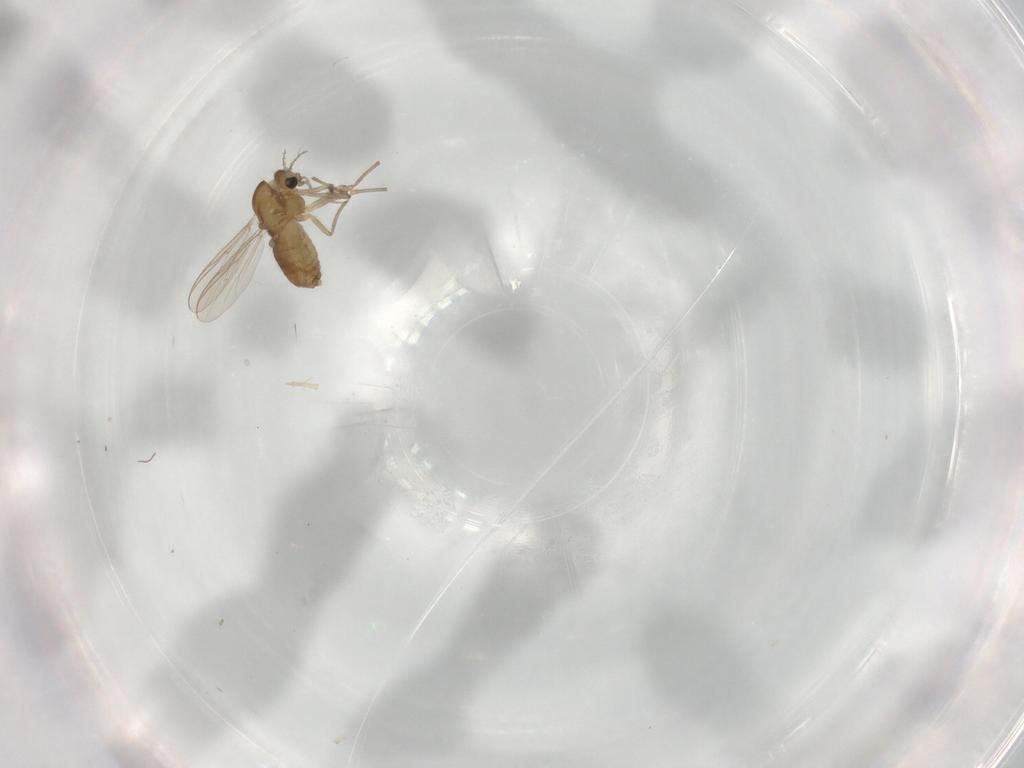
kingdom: Animalia
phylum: Arthropoda
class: Insecta
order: Diptera
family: Chironomidae
